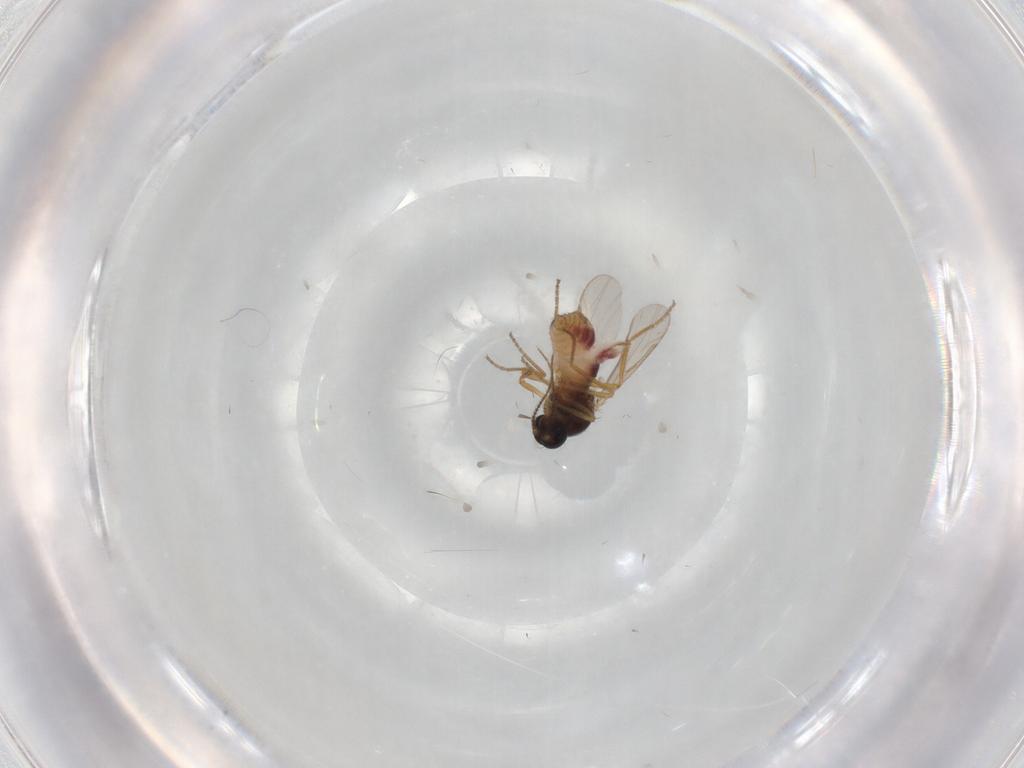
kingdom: Animalia
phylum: Arthropoda
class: Insecta
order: Diptera
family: Ceratopogonidae
